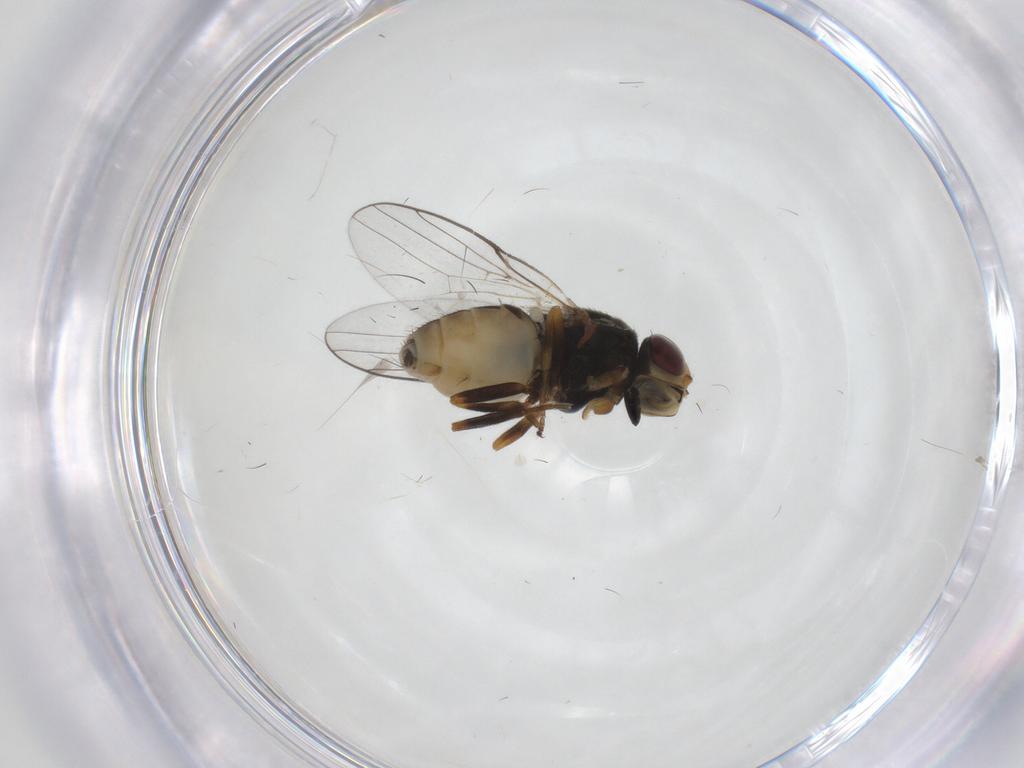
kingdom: Animalia
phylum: Arthropoda
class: Insecta
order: Diptera
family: Chloropidae
